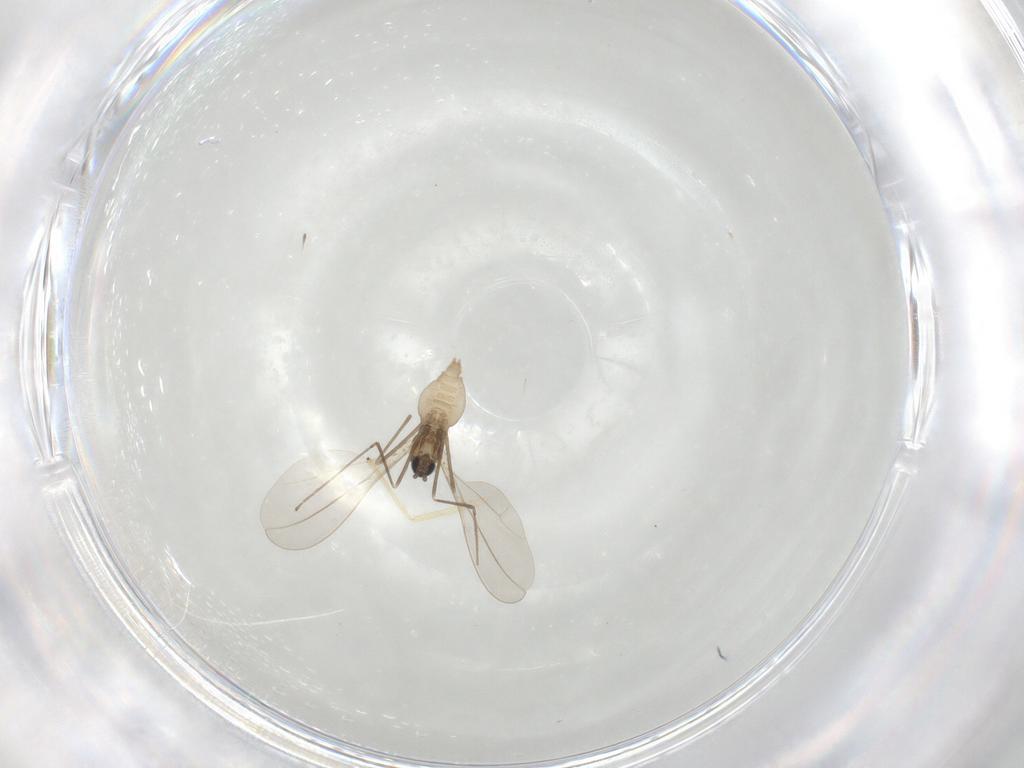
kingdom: Animalia
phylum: Arthropoda
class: Insecta
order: Diptera
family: Cecidomyiidae
